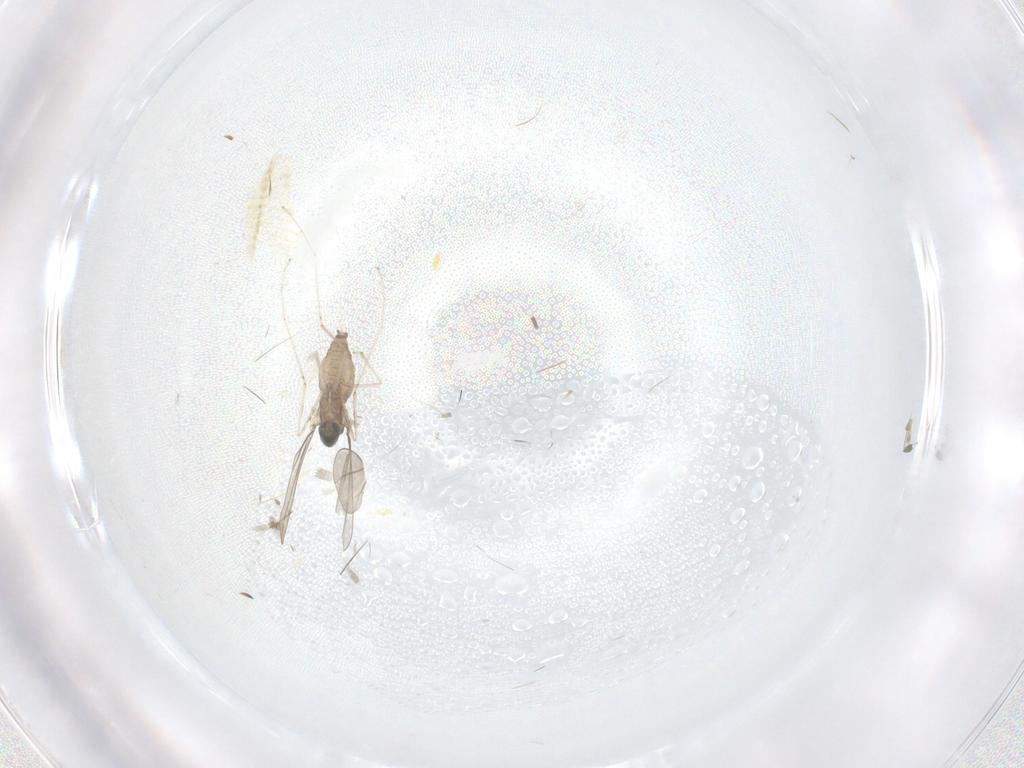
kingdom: Animalia
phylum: Arthropoda
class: Insecta
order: Diptera
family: Cecidomyiidae
